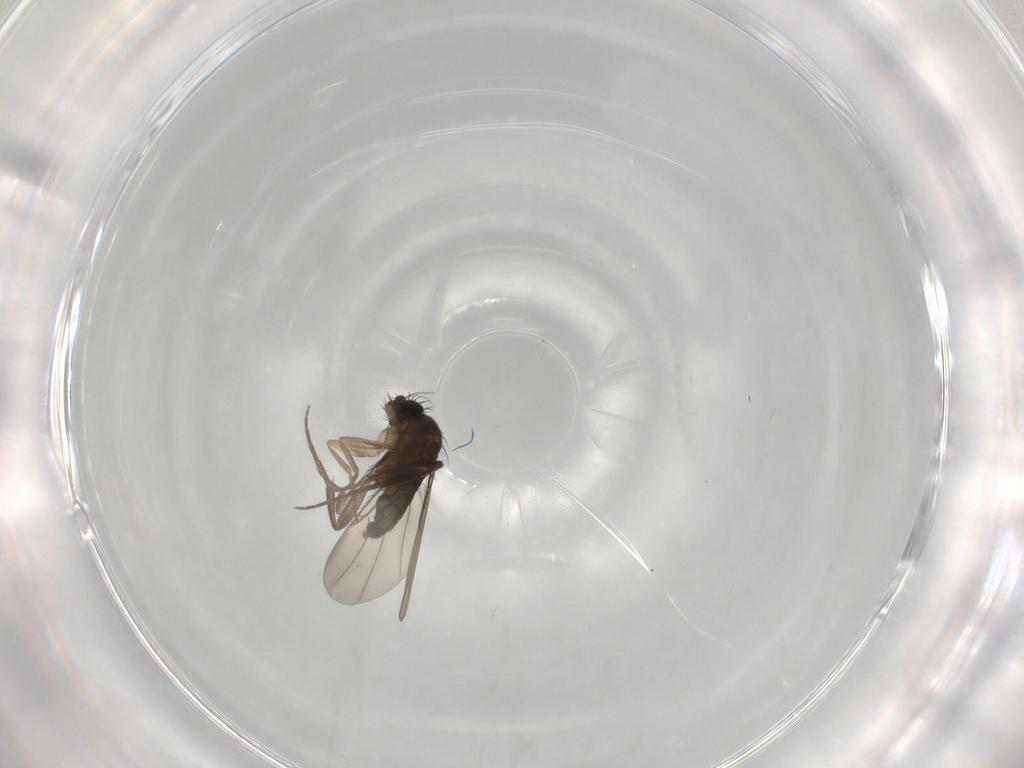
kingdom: Animalia
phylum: Arthropoda
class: Insecta
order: Diptera
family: Phoridae
